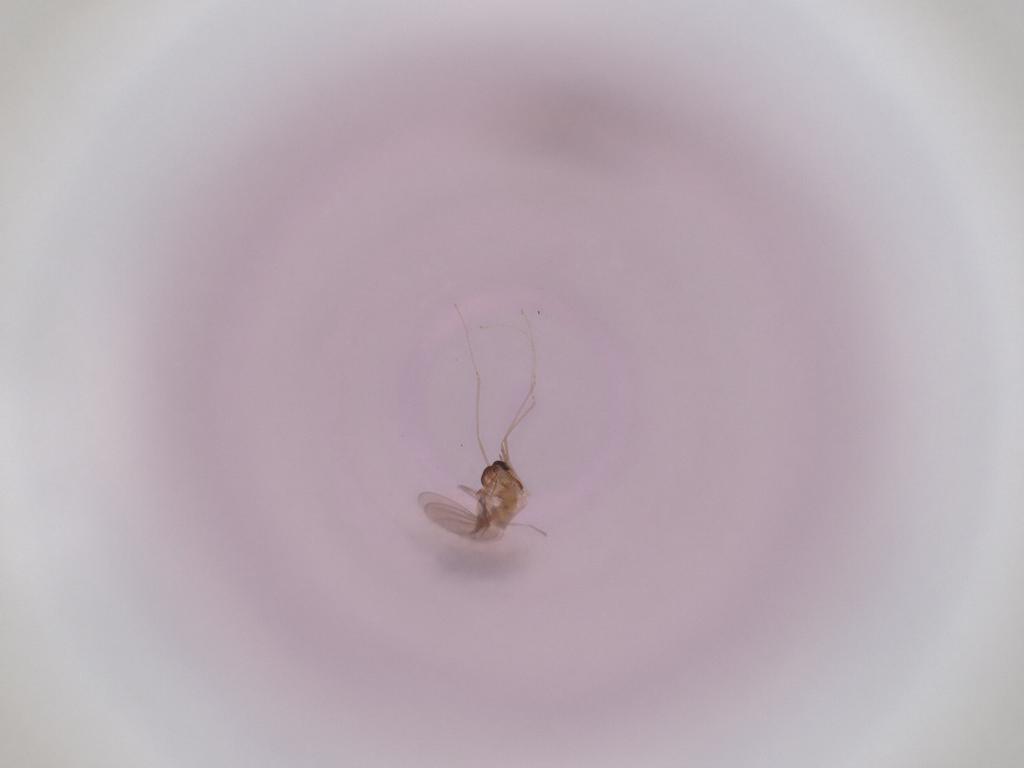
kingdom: Animalia
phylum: Arthropoda
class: Insecta
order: Diptera
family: Cecidomyiidae
